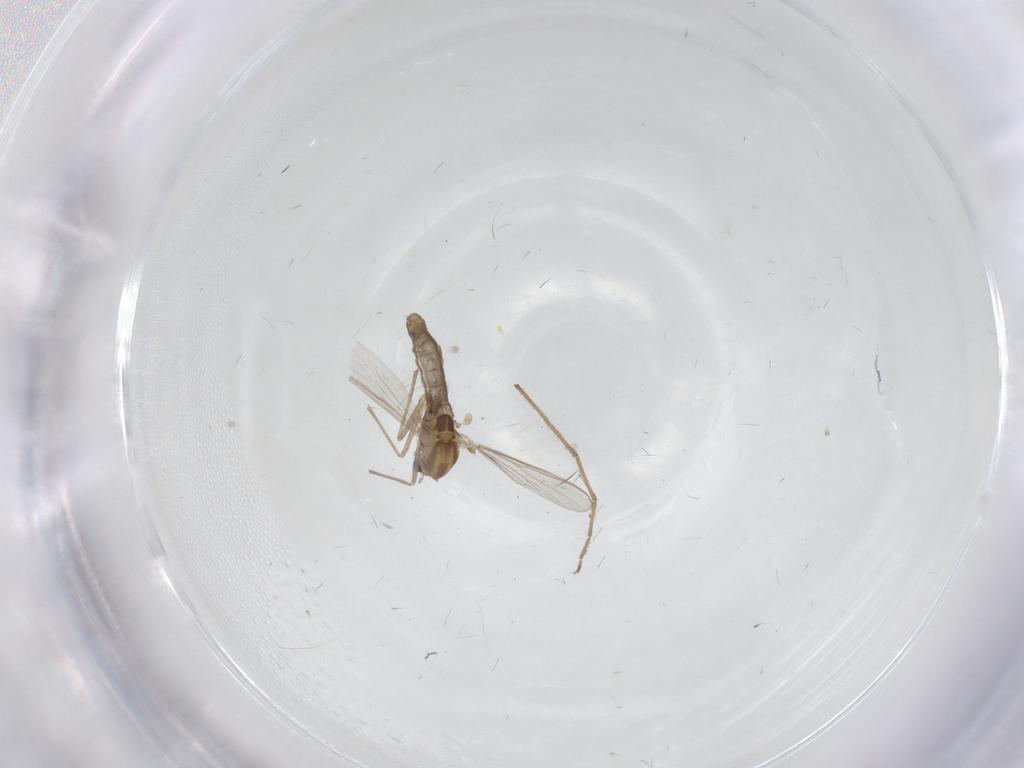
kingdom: Animalia
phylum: Arthropoda
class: Insecta
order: Diptera
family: Chironomidae
